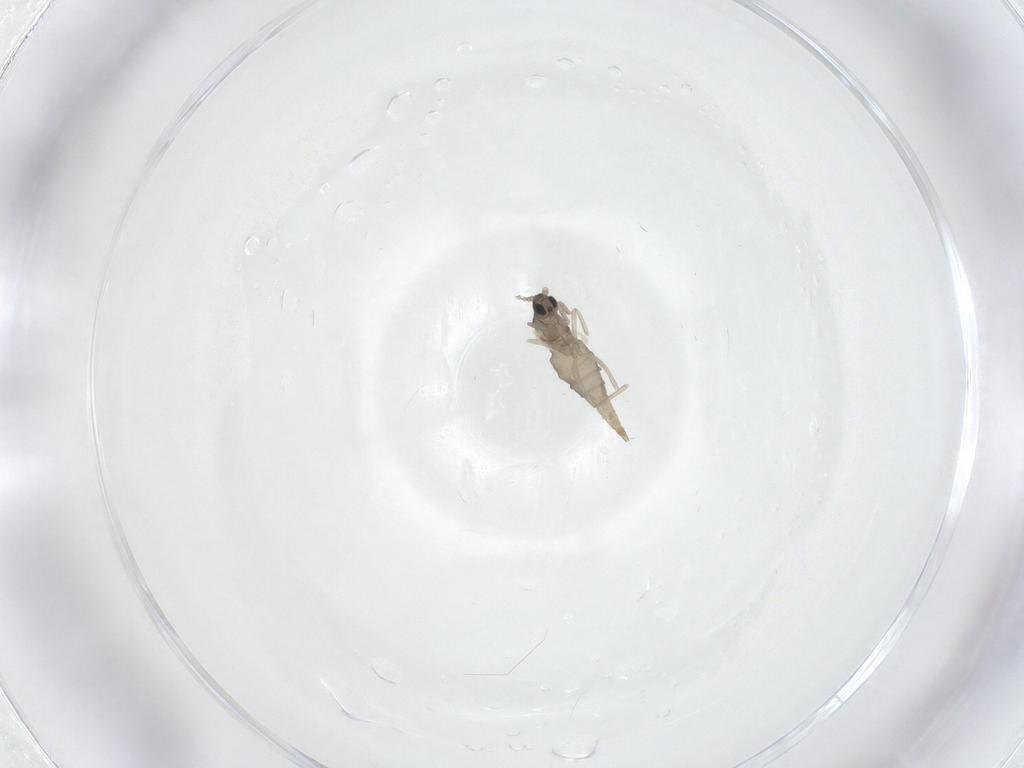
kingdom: Animalia
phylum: Arthropoda
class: Insecta
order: Diptera
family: Cecidomyiidae
